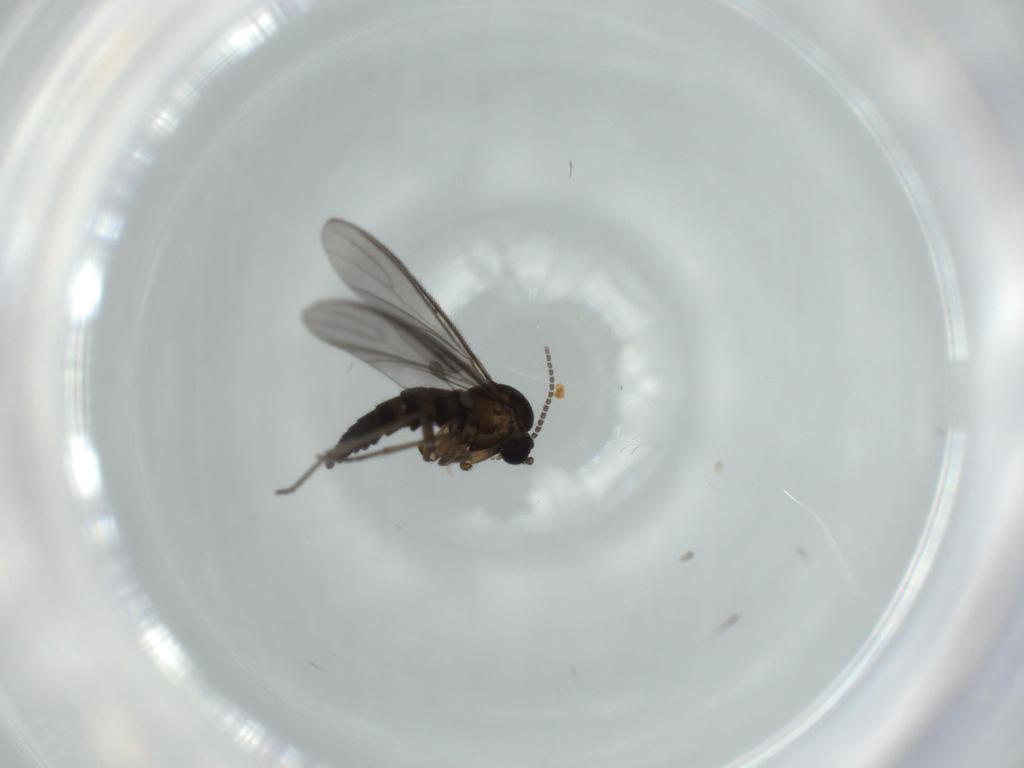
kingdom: Animalia
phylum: Arthropoda
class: Insecta
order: Diptera
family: Sciaridae
